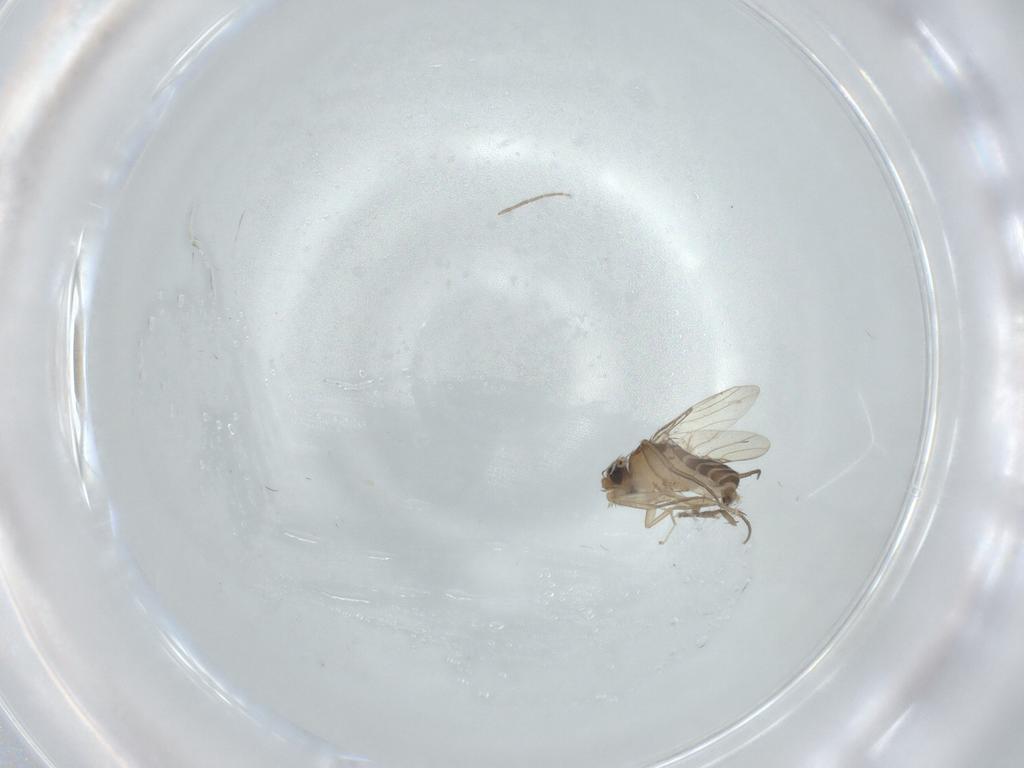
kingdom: Animalia
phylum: Arthropoda
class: Insecta
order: Diptera
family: Phoridae
